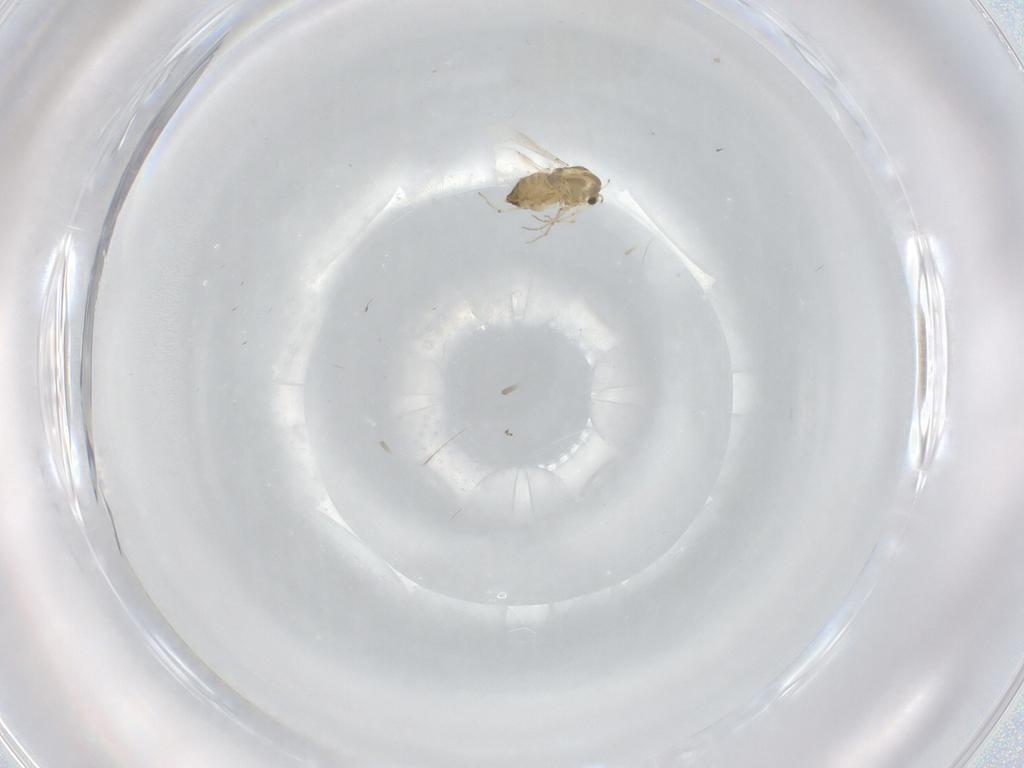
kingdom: Animalia
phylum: Arthropoda
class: Insecta
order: Diptera
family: Chironomidae
